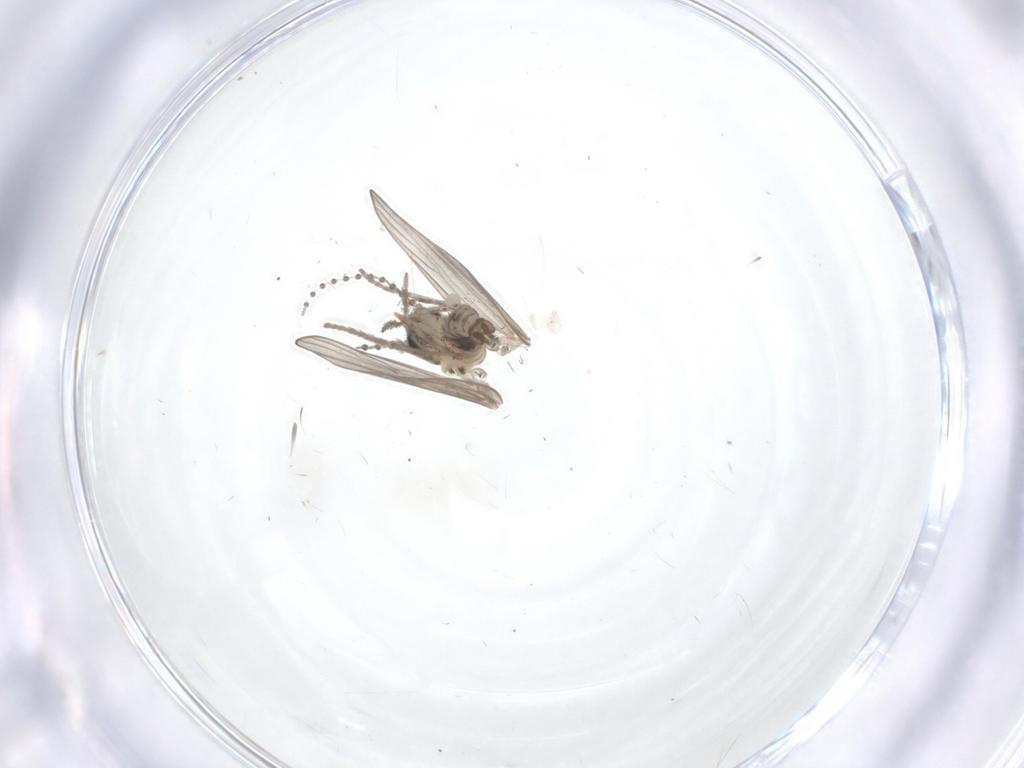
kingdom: Animalia
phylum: Arthropoda
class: Insecta
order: Diptera
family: Psychodidae
